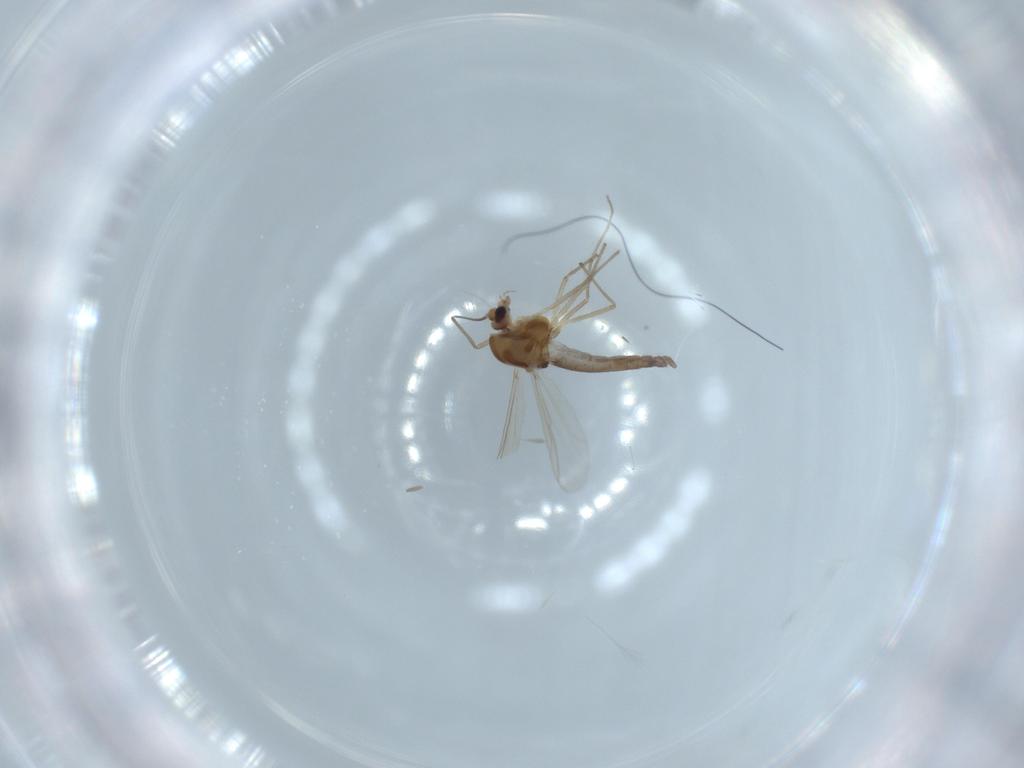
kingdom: Animalia
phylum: Arthropoda
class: Insecta
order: Diptera
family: Chironomidae
